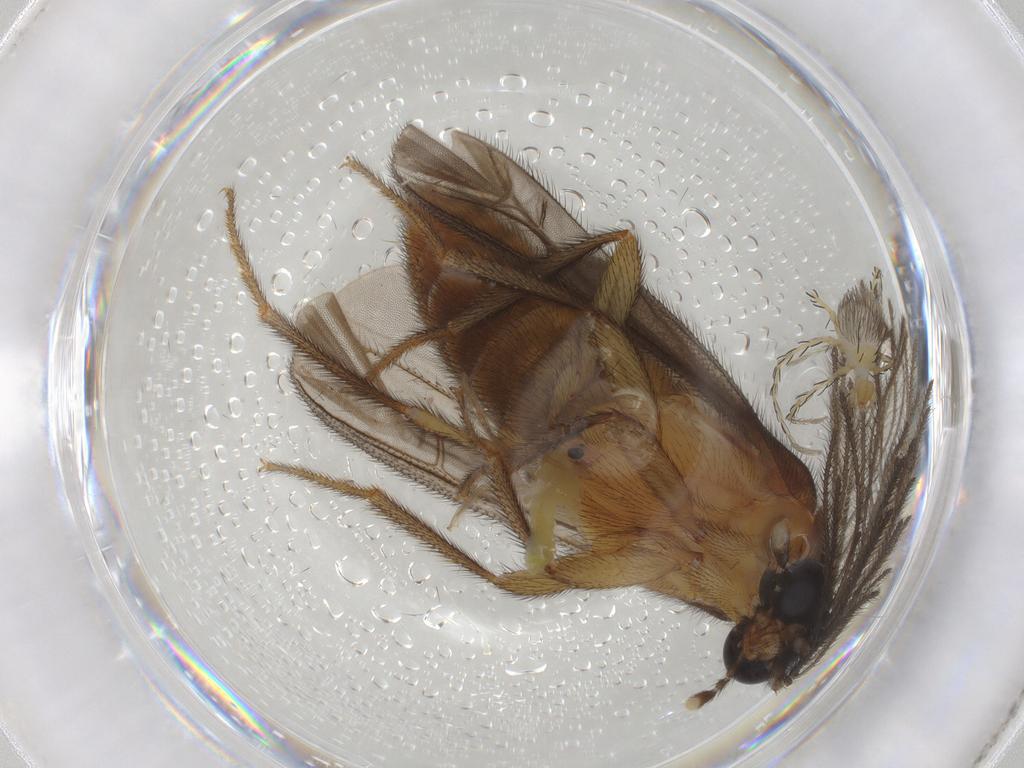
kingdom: Animalia
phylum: Arthropoda
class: Insecta
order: Diptera
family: Chironomidae
